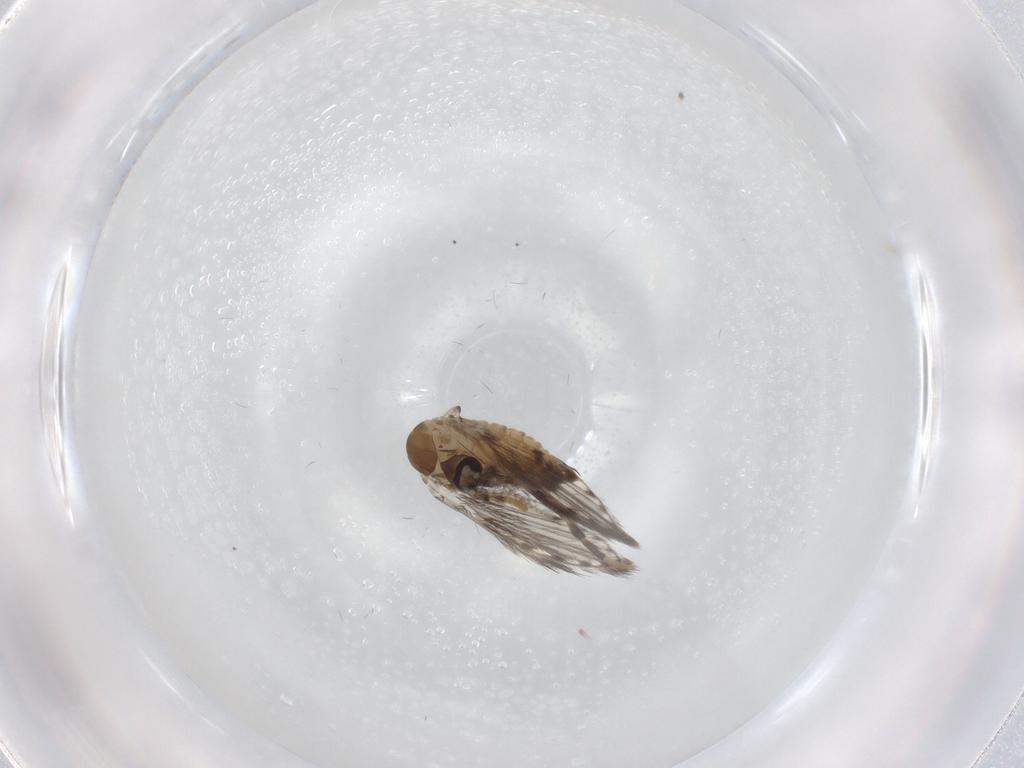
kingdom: Animalia
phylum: Arthropoda
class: Insecta
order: Diptera
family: Psychodidae
